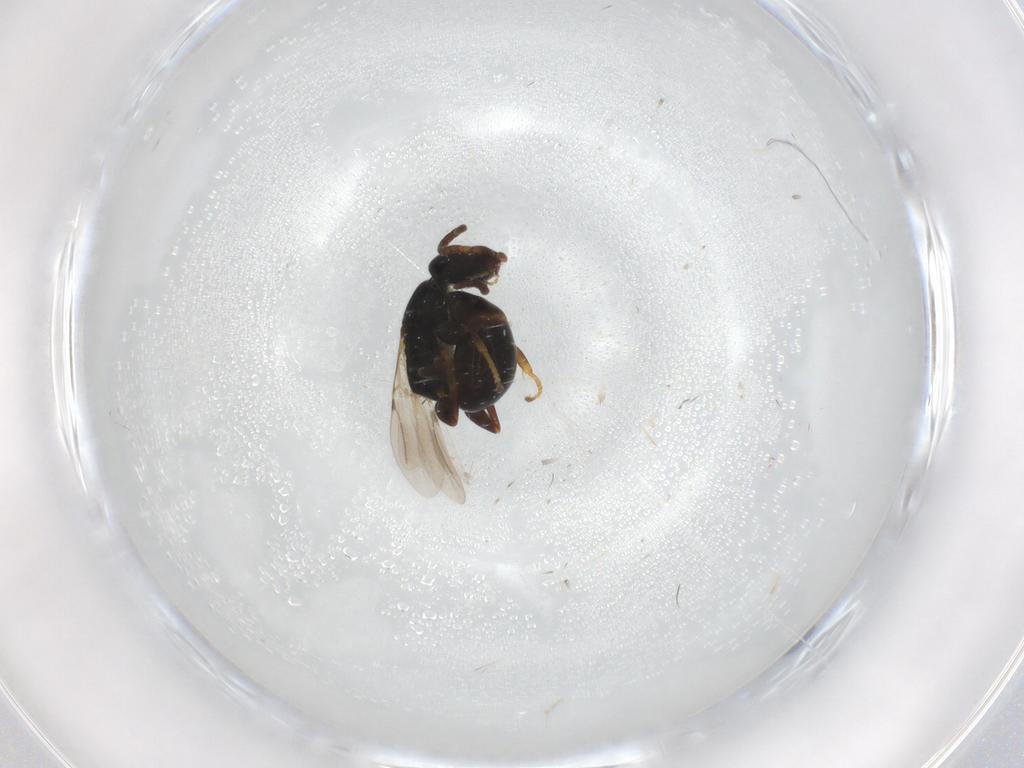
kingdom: Animalia
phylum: Arthropoda
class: Insecta
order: Hymenoptera
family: Bethylidae
